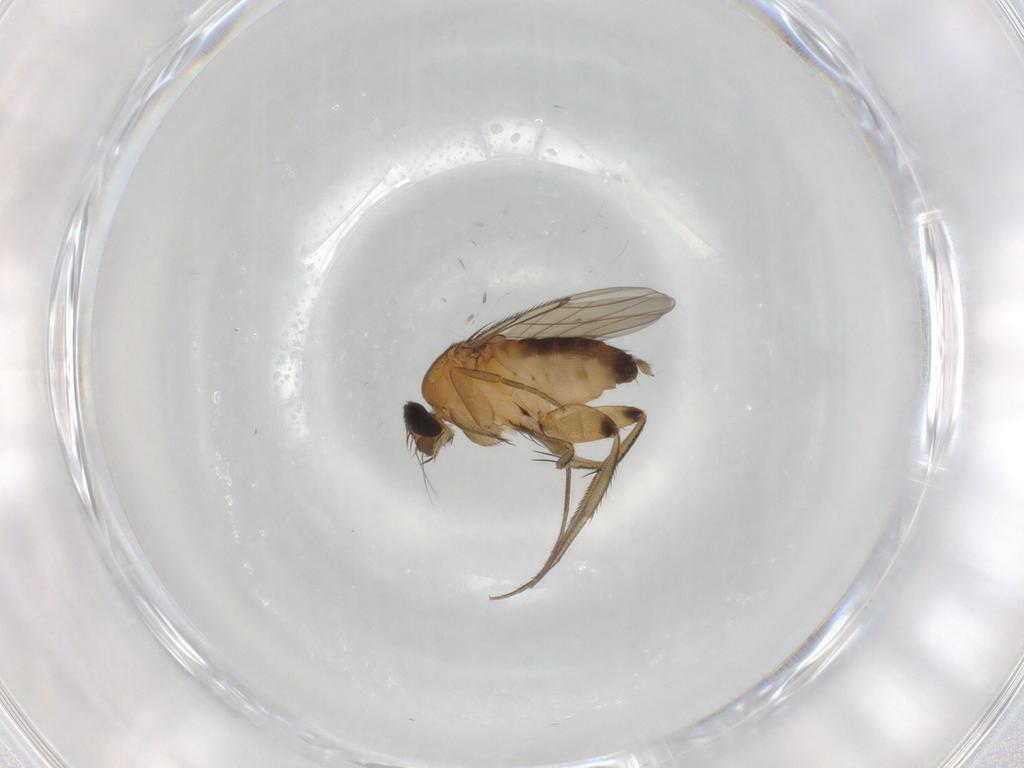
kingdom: Animalia
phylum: Arthropoda
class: Insecta
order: Diptera
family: Phoridae
